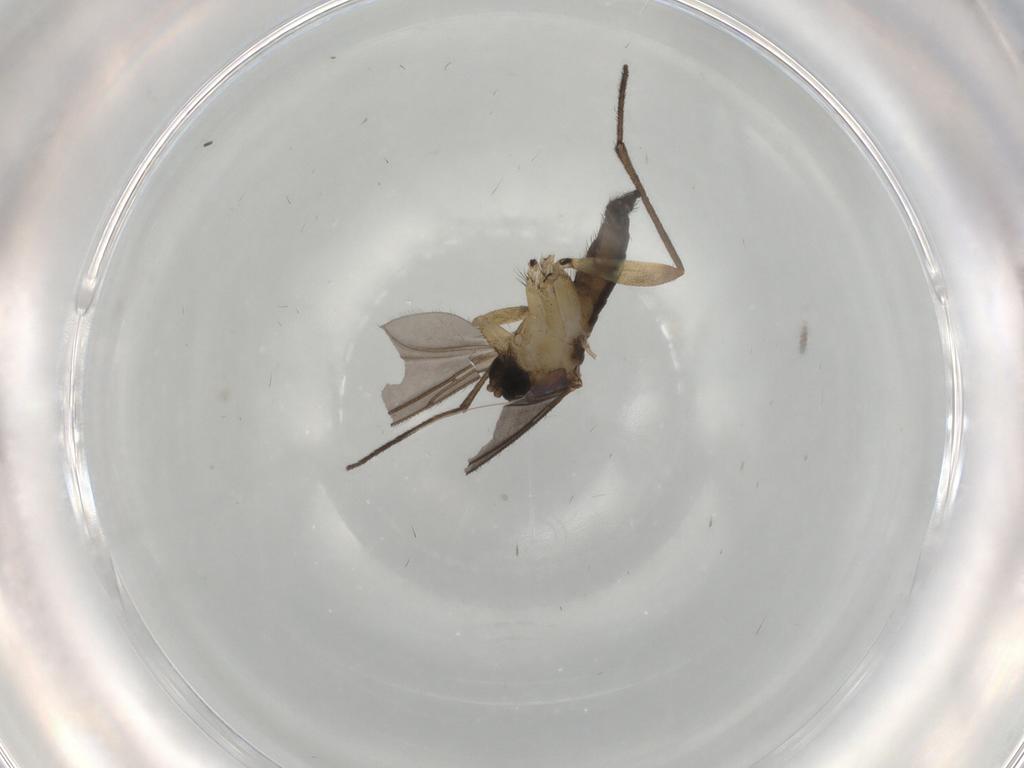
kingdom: Animalia
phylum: Arthropoda
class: Insecta
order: Diptera
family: Sciaridae
